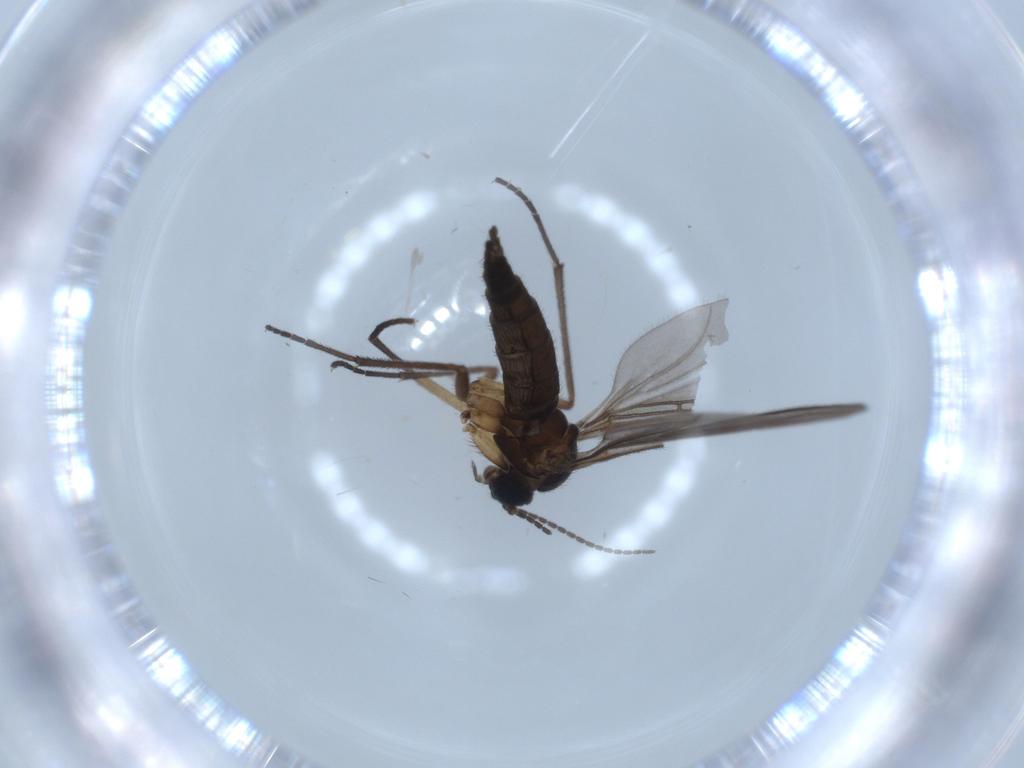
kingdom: Animalia
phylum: Arthropoda
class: Insecta
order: Diptera
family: Sciaridae
